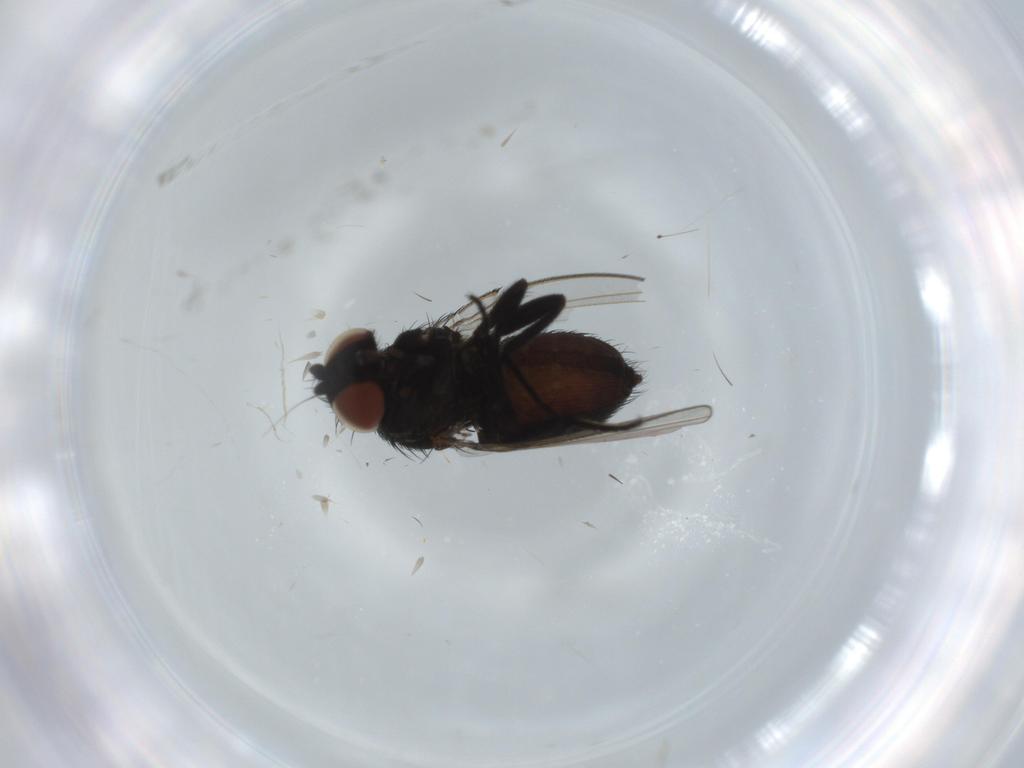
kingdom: Animalia
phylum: Arthropoda
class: Insecta
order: Diptera
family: Milichiidae
